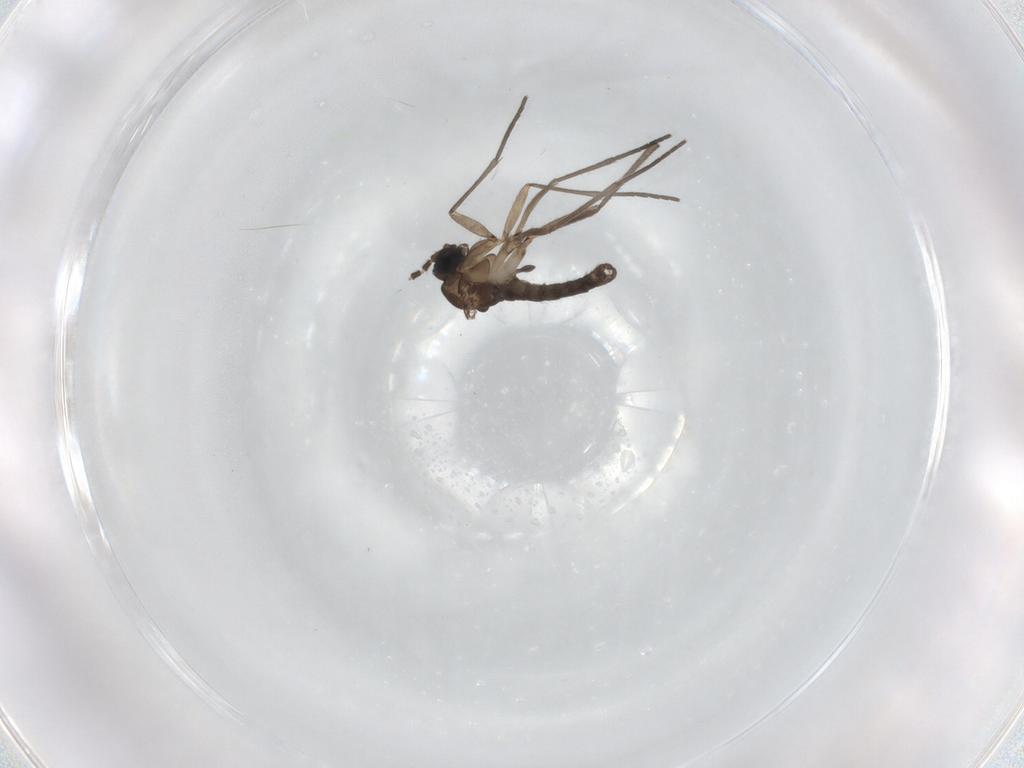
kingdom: Animalia
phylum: Arthropoda
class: Insecta
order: Diptera
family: Sciaridae
